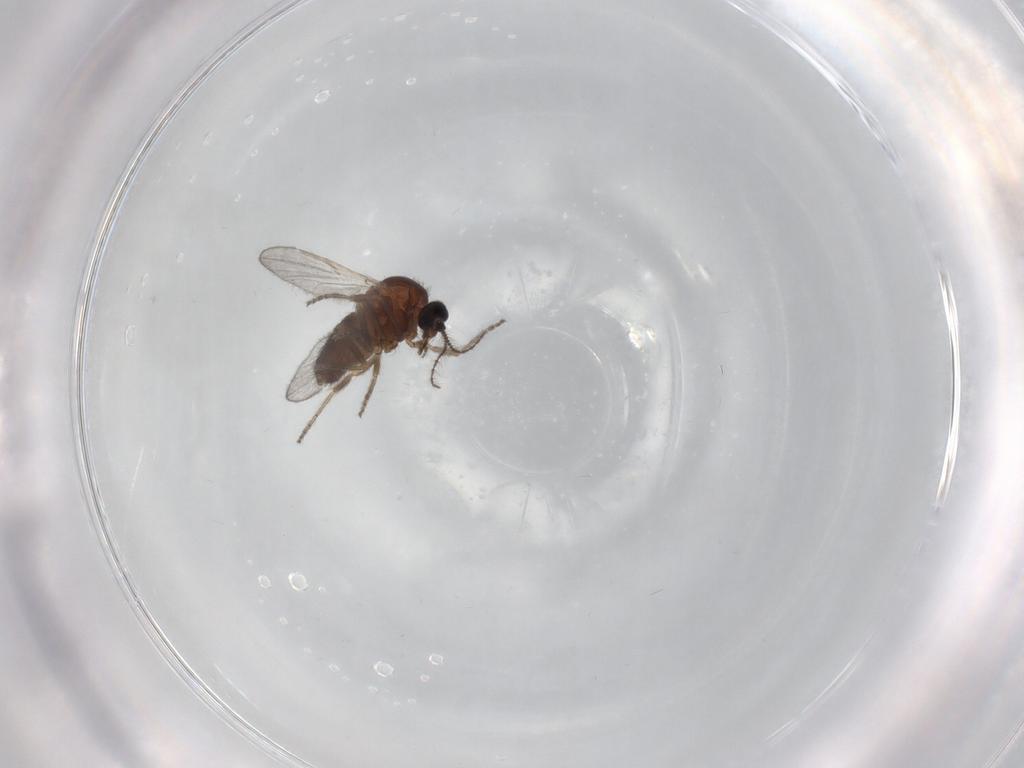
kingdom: Animalia
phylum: Arthropoda
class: Insecta
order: Diptera
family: Ceratopogonidae
